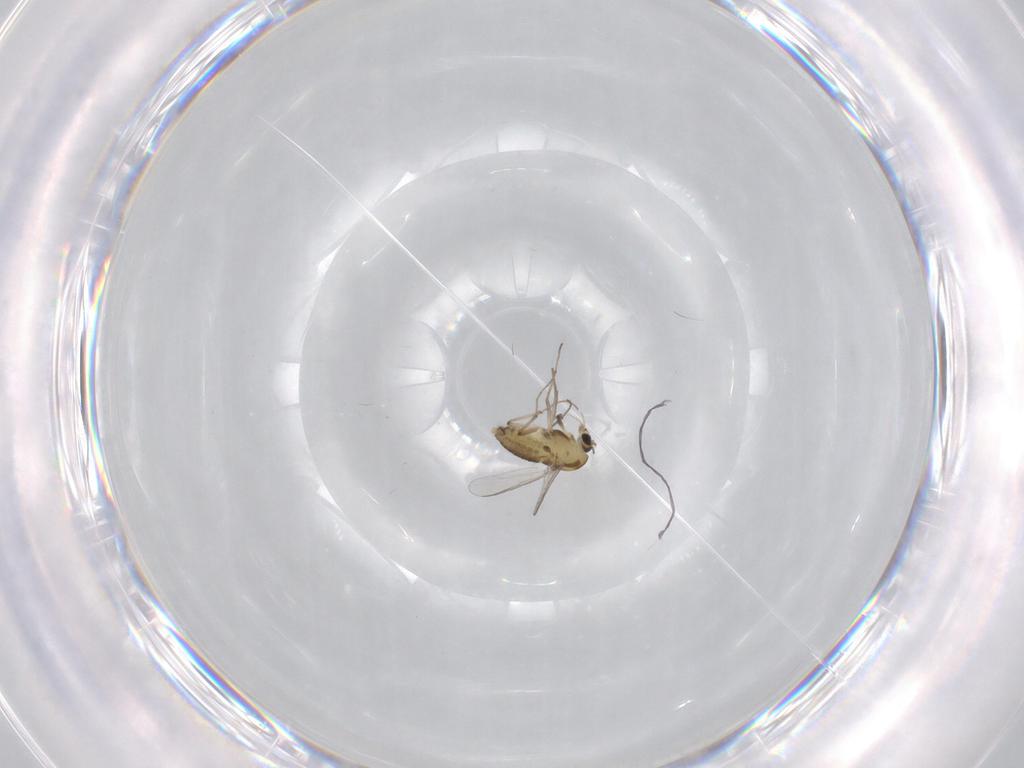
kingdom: Animalia
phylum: Arthropoda
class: Insecta
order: Diptera
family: Chironomidae
